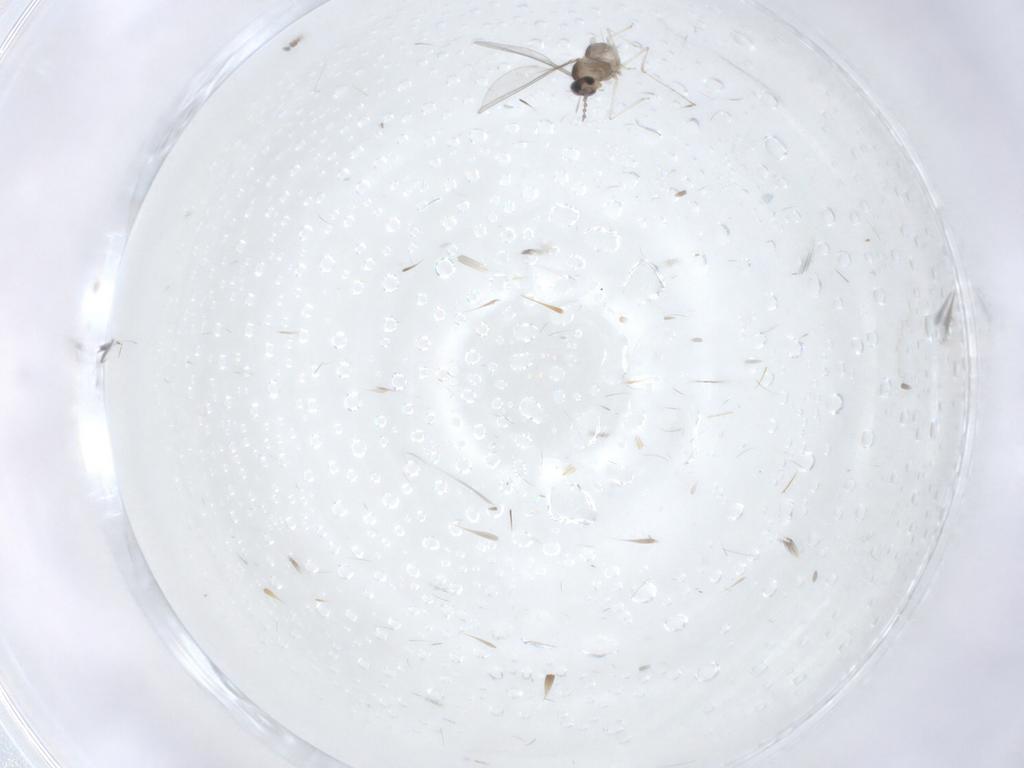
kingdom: Animalia
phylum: Arthropoda
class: Insecta
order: Diptera
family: Cecidomyiidae
